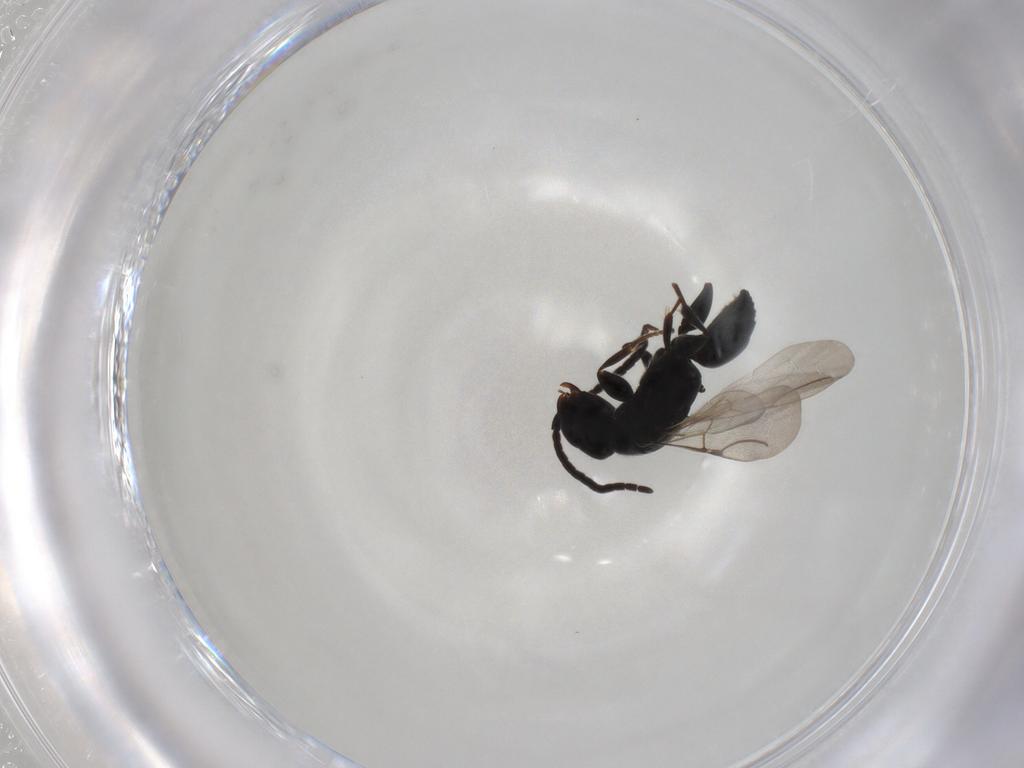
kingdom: Animalia
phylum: Arthropoda
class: Insecta
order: Hymenoptera
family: Bethylidae
